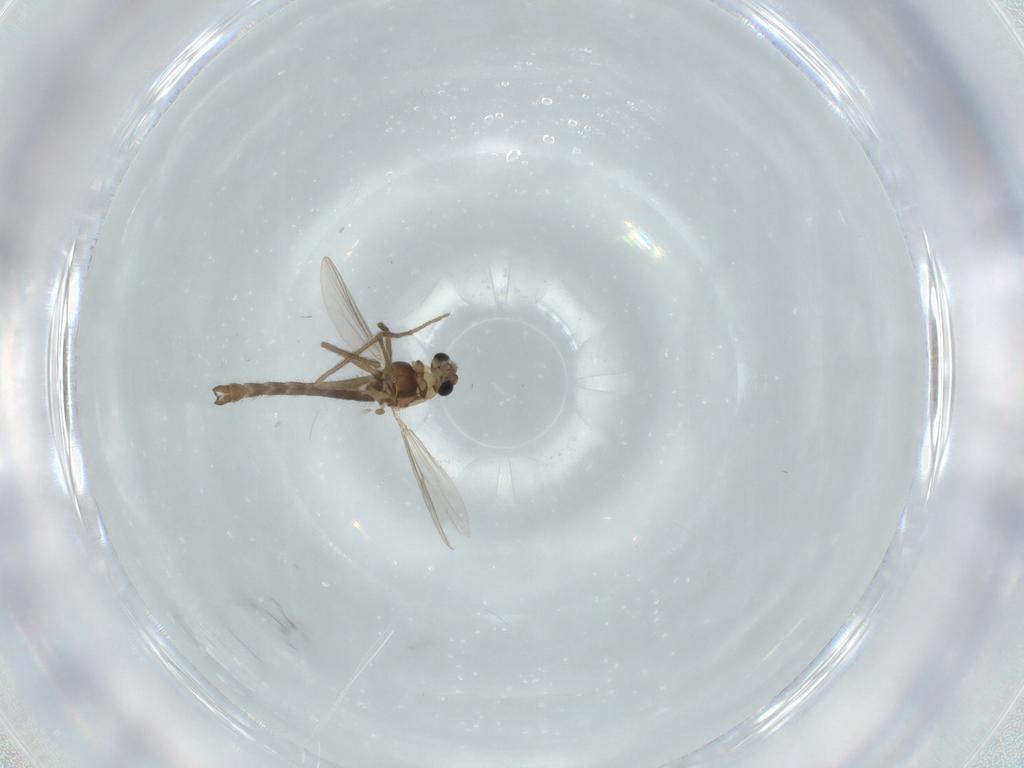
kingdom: Animalia
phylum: Arthropoda
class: Insecta
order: Diptera
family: Chironomidae
